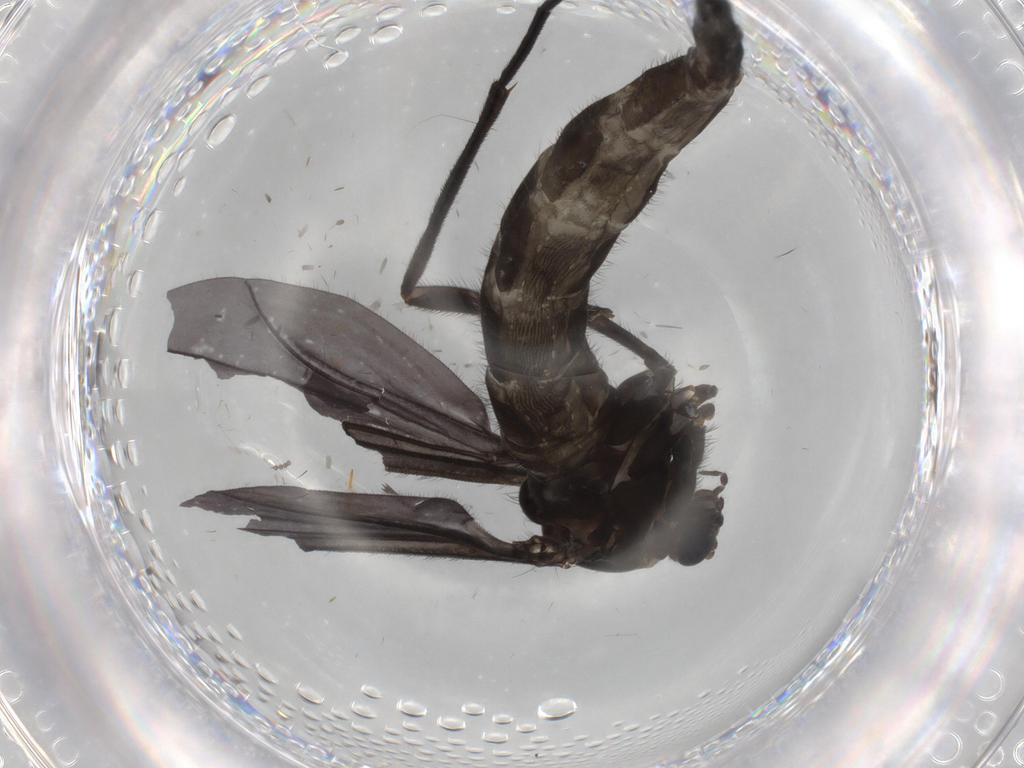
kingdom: Animalia
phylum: Arthropoda
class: Insecta
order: Diptera
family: Sciaridae
